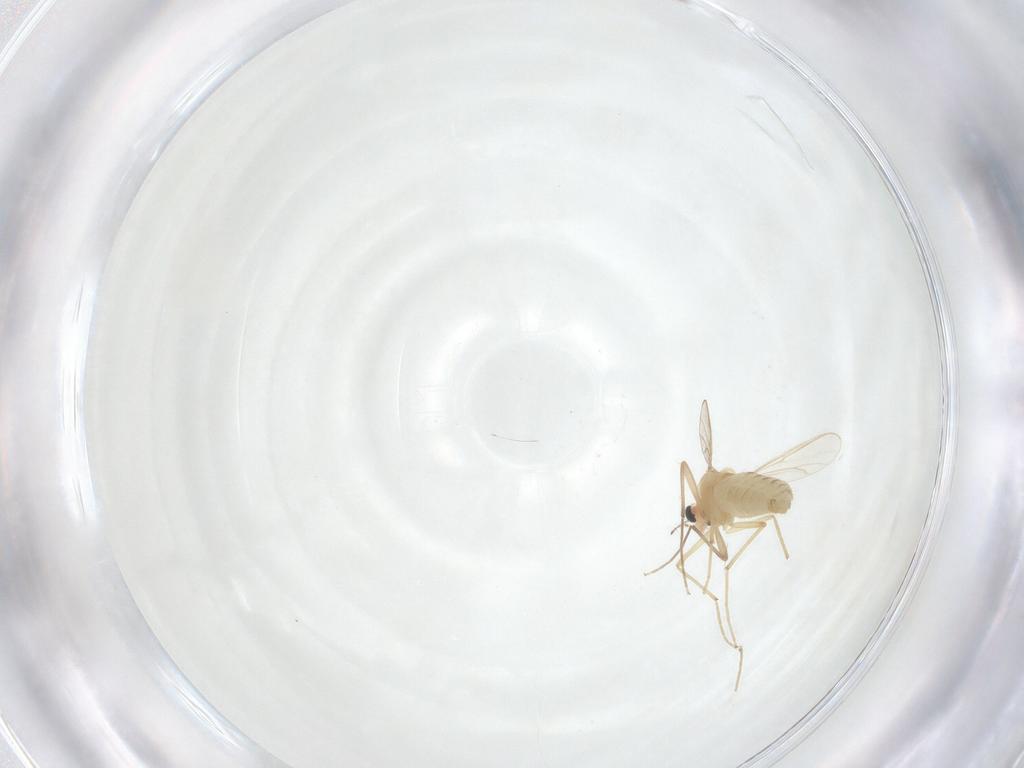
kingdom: Animalia
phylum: Arthropoda
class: Insecta
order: Diptera
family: Chironomidae
